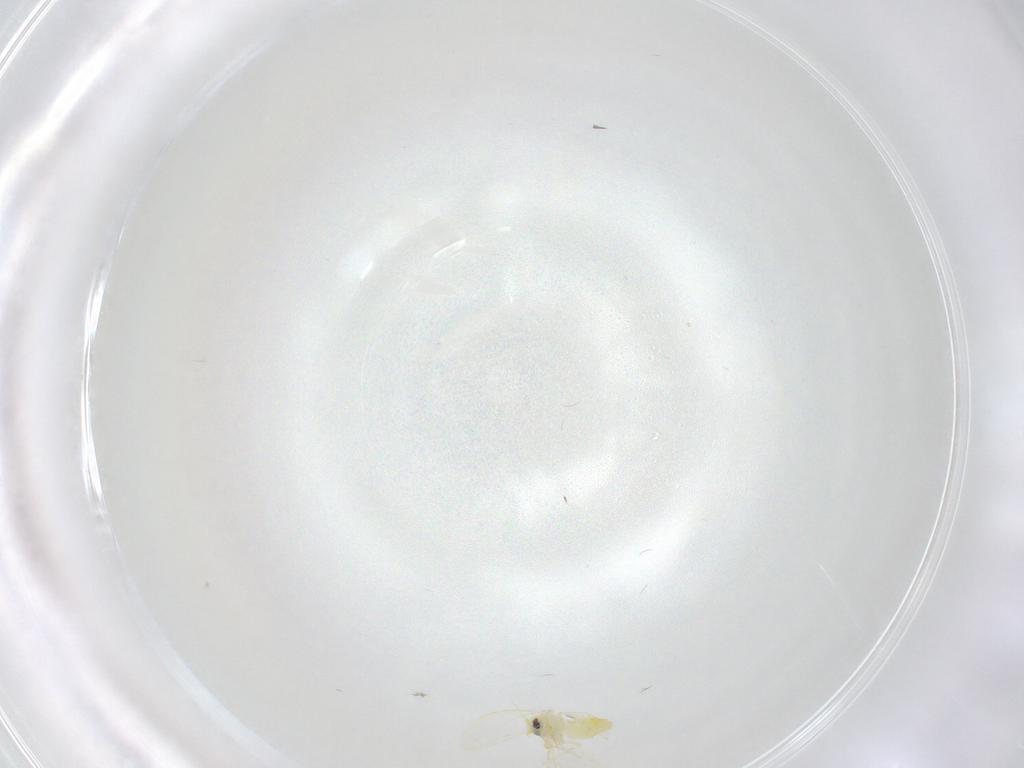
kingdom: Animalia
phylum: Arthropoda
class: Insecta
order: Hemiptera
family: Aleyrodidae
